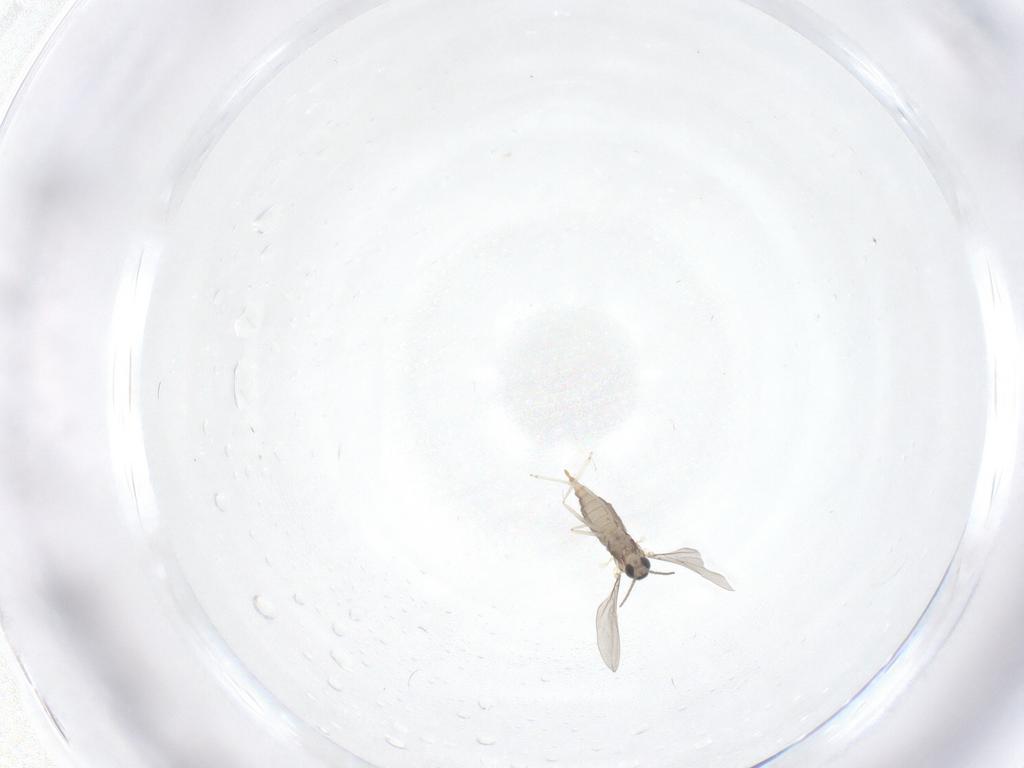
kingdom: Animalia
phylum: Arthropoda
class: Insecta
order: Diptera
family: Cecidomyiidae
